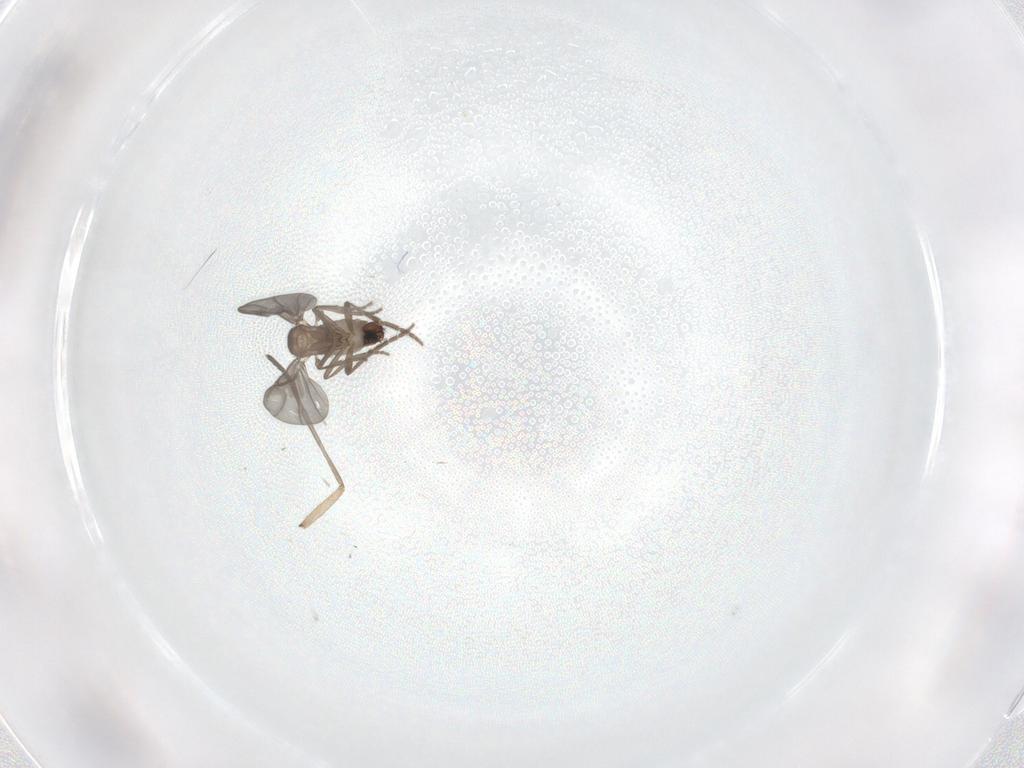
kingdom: Animalia
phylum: Arthropoda
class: Insecta
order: Diptera
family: Phoridae
